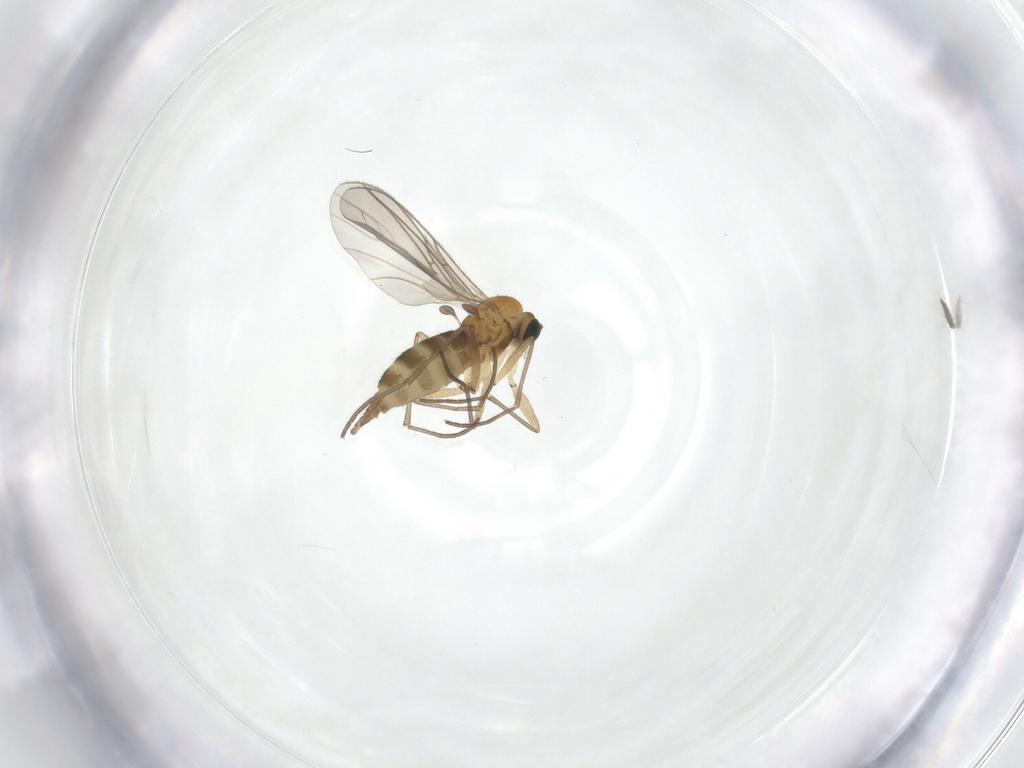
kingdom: Animalia
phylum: Arthropoda
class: Insecta
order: Diptera
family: Sciaridae
